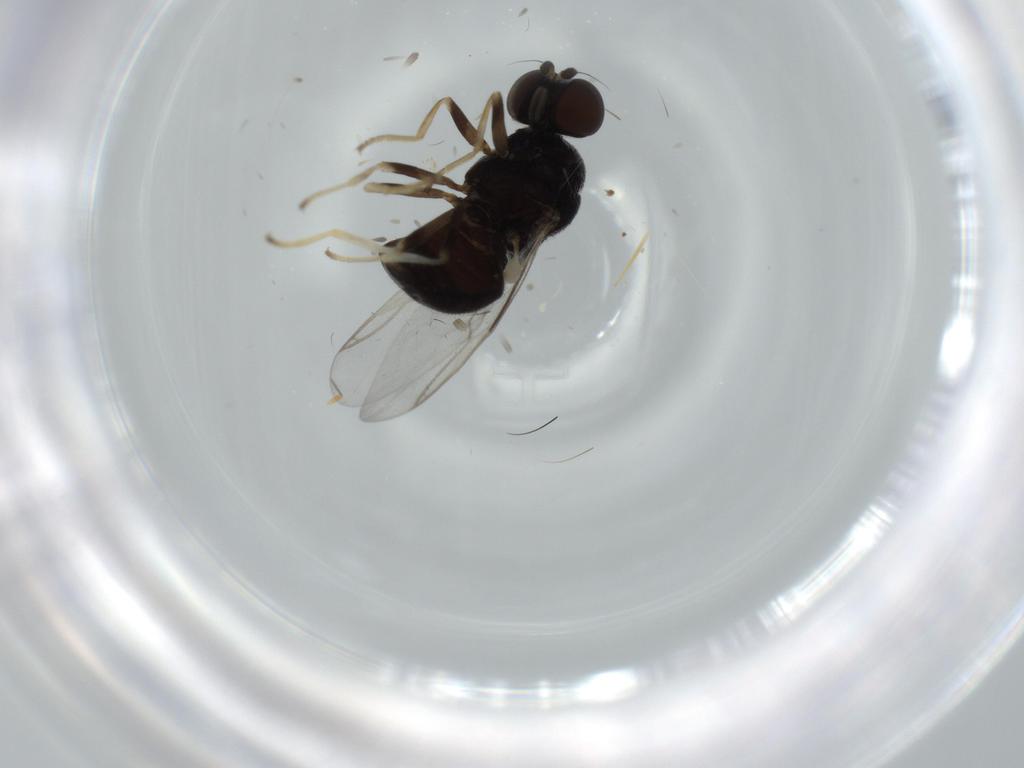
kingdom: Animalia
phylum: Arthropoda
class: Insecta
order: Diptera
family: Stratiomyidae
